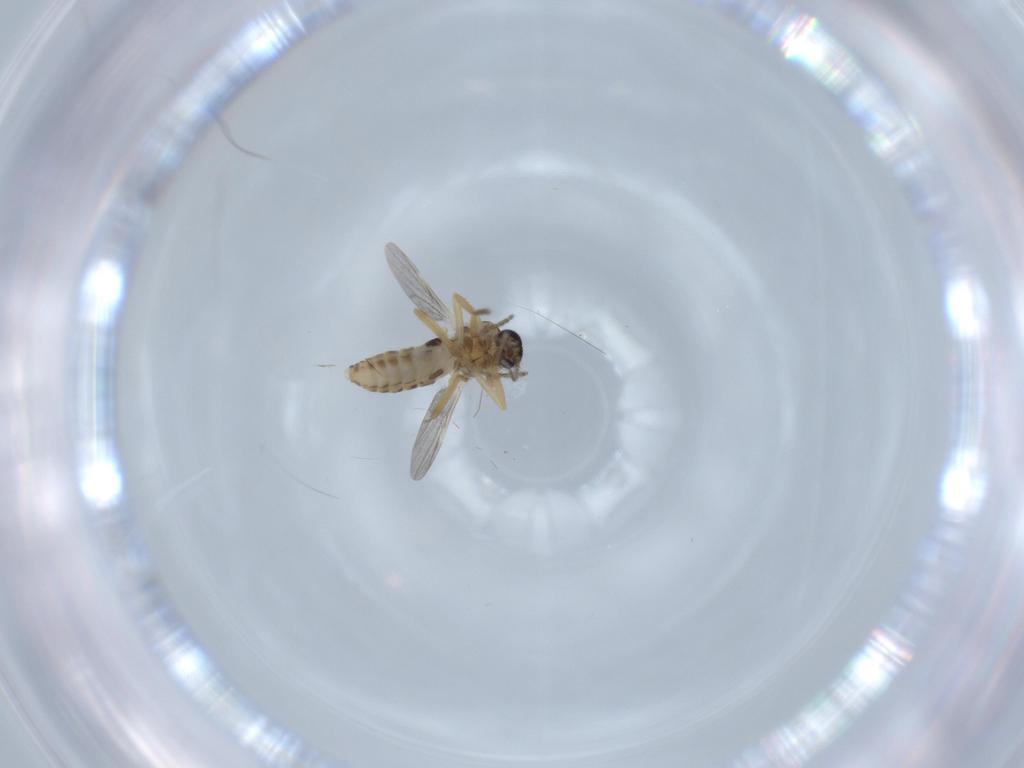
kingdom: Animalia
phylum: Arthropoda
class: Insecta
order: Diptera
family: Ceratopogonidae
